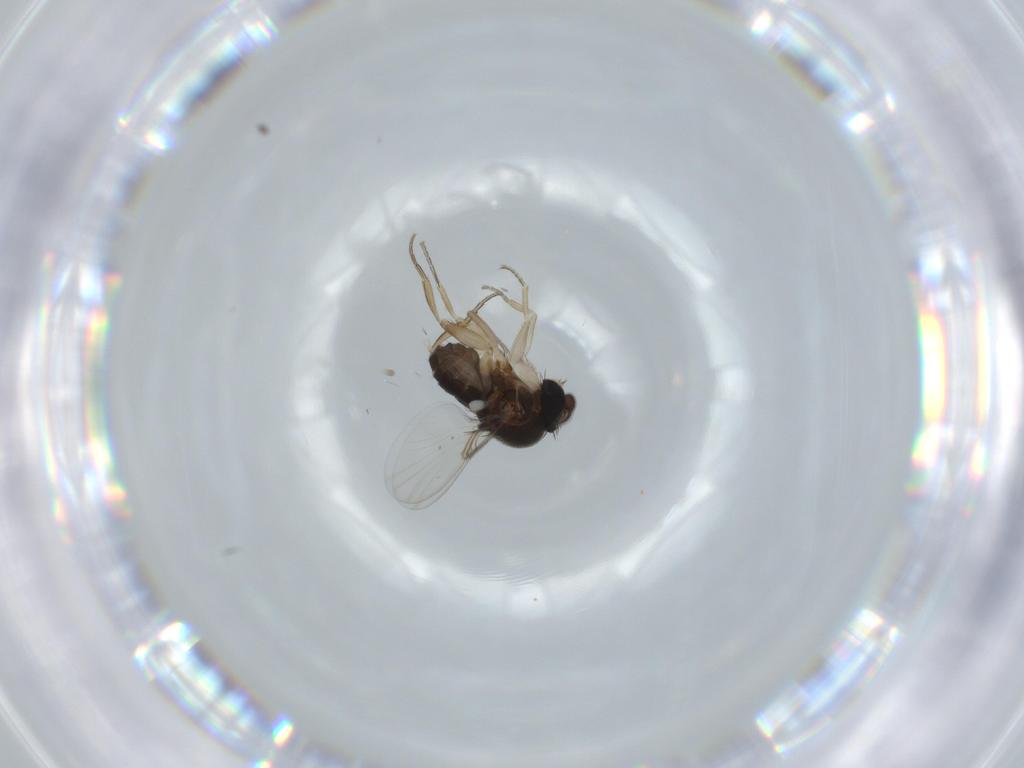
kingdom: Animalia
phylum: Arthropoda
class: Insecta
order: Diptera
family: Phoridae
